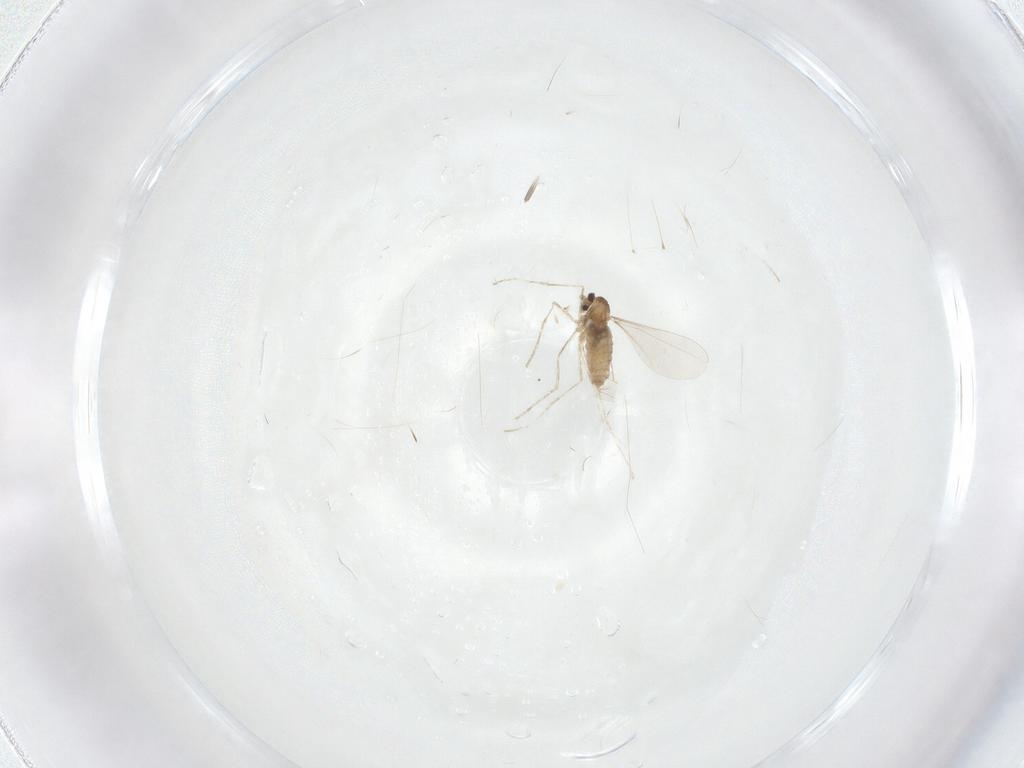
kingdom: Animalia
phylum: Arthropoda
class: Insecta
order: Diptera
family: Cecidomyiidae
